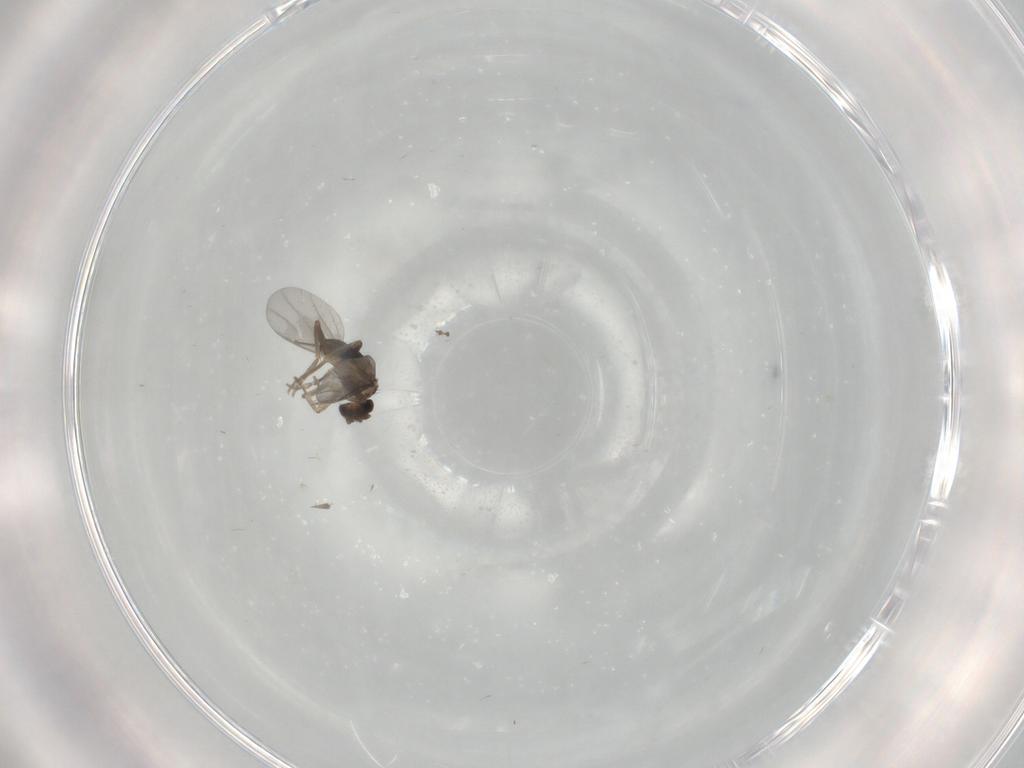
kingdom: Animalia
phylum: Arthropoda
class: Insecta
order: Diptera
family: Phoridae
